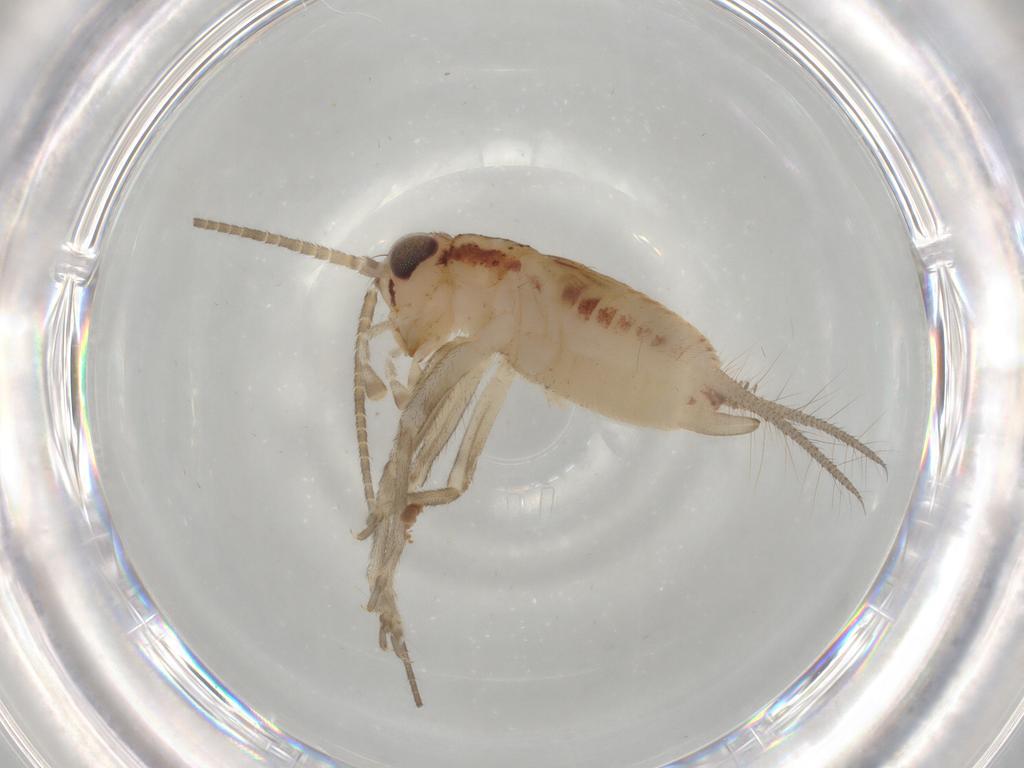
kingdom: Animalia
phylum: Arthropoda
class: Insecta
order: Orthoptera
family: Trigonidiidae
